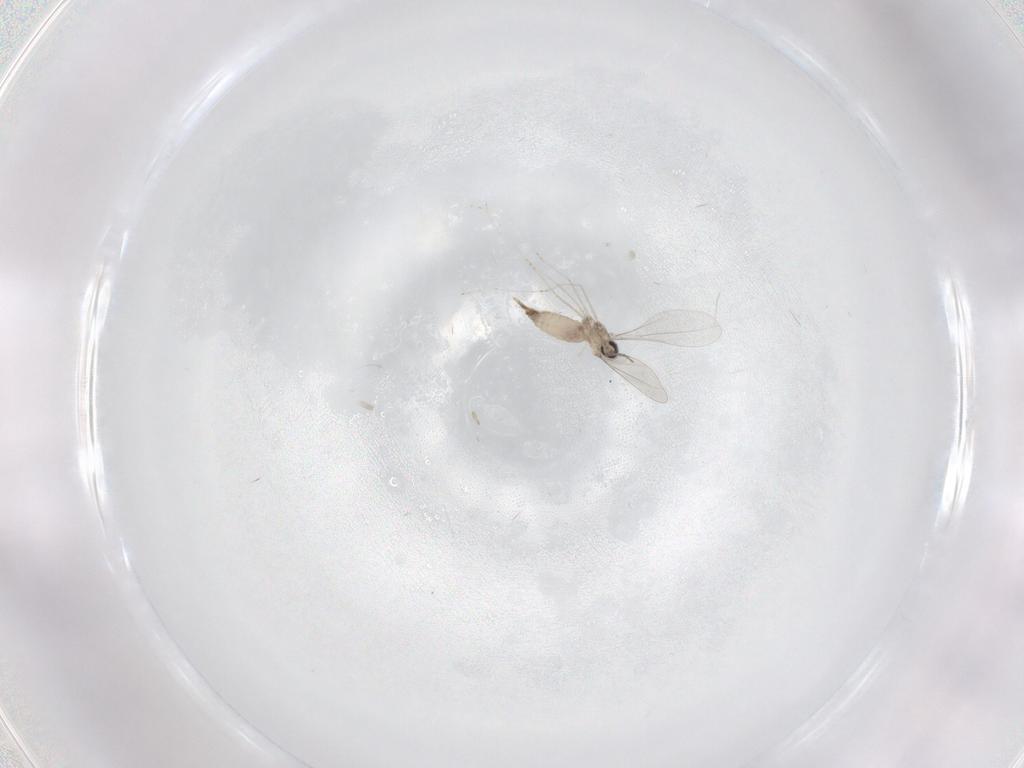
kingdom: Animalia
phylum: Arthropoda
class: Insecta
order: Diptera
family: Cecidomyiidae
